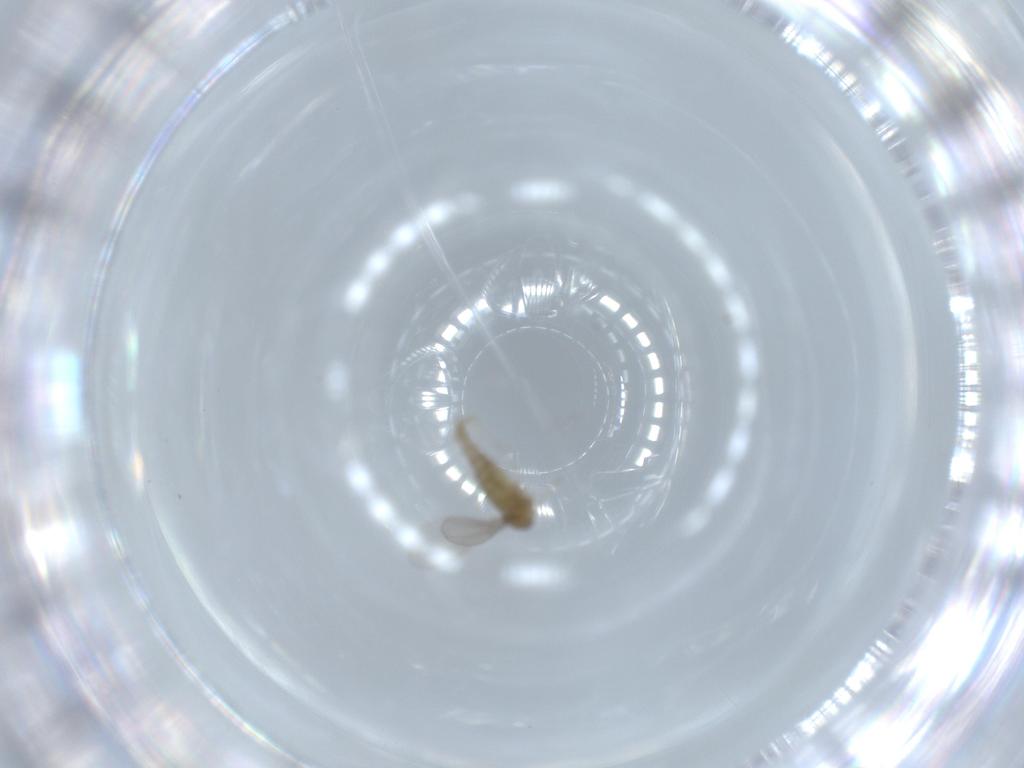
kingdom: Animalia
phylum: Arthropoda
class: Insecta
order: Diptera
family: Cecidomyiidae
